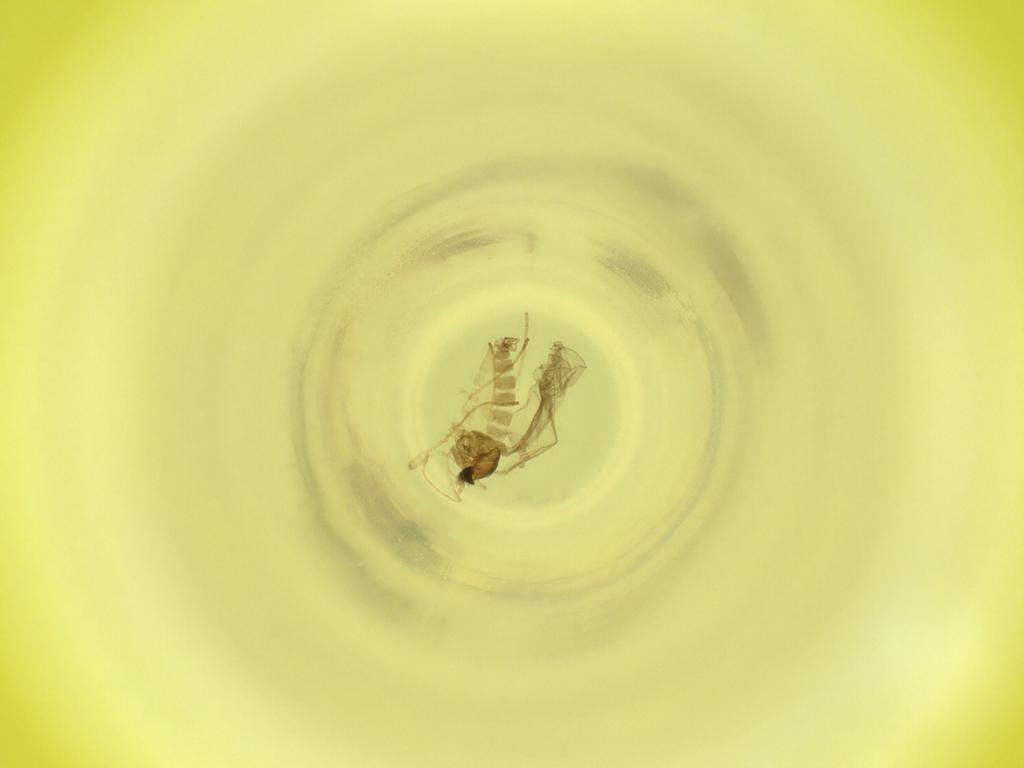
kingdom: Animalia
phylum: Arthropoda
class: Insecta
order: Diptera
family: Cecidomyiidae
